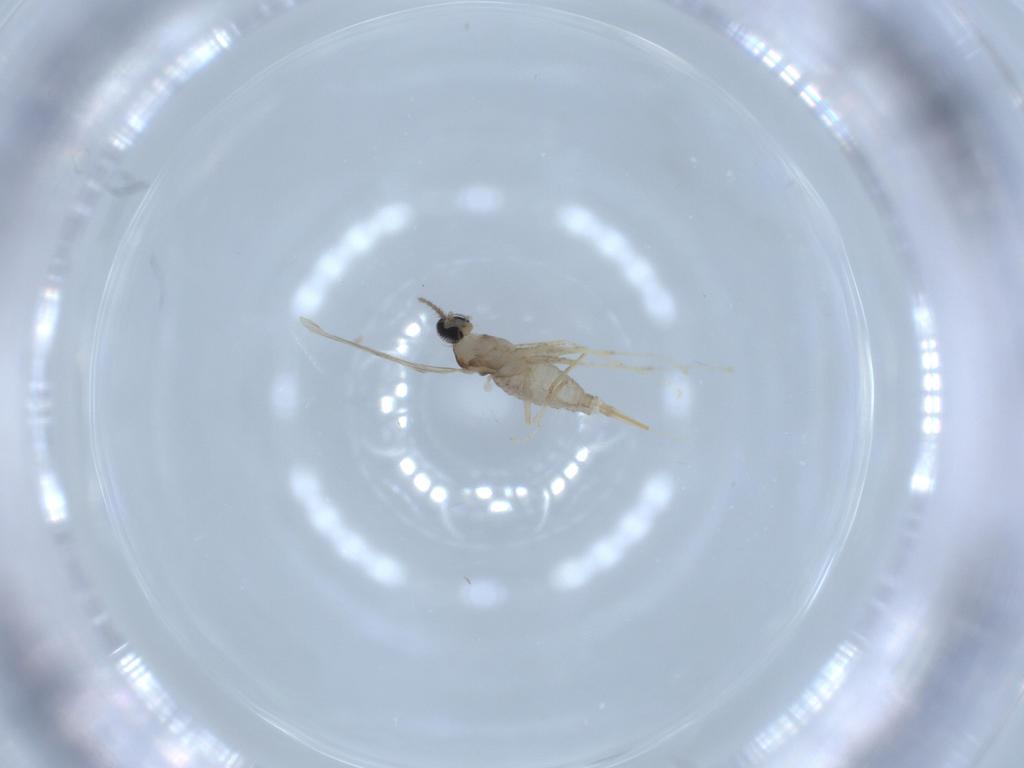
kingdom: Animalia
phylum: Arthropoda
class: Insecta
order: Diptera
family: Cecidomyiidae
